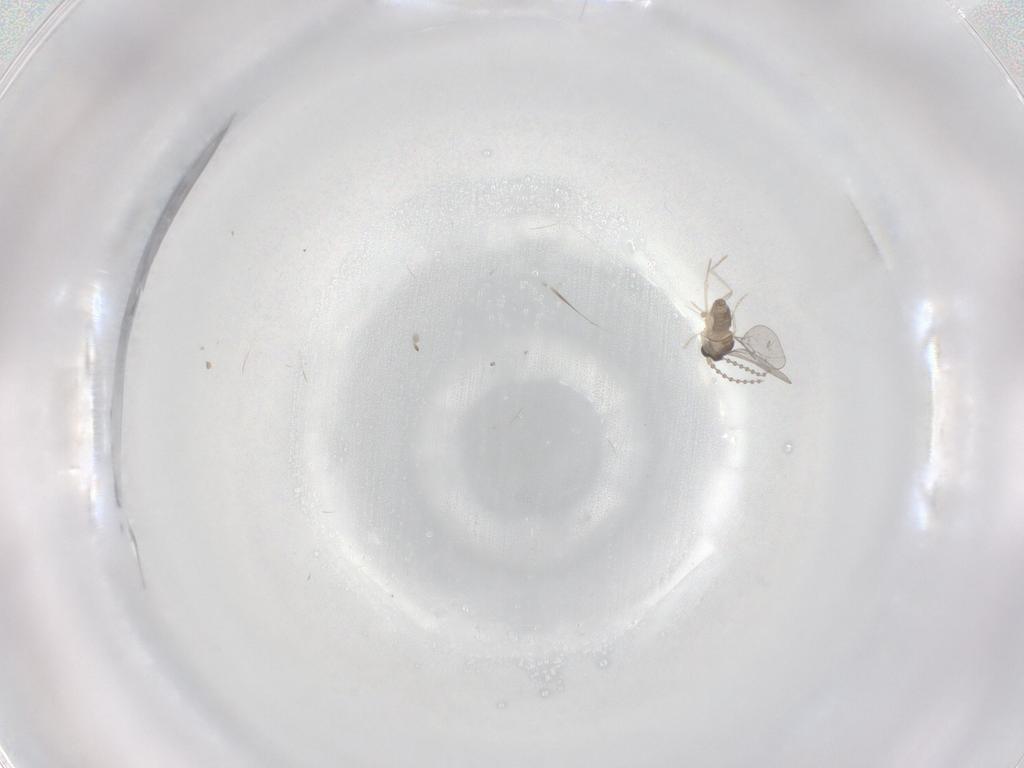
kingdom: Animalia
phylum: Arthropoda
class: Insecta
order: Diptera
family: Cecidomyiidae
